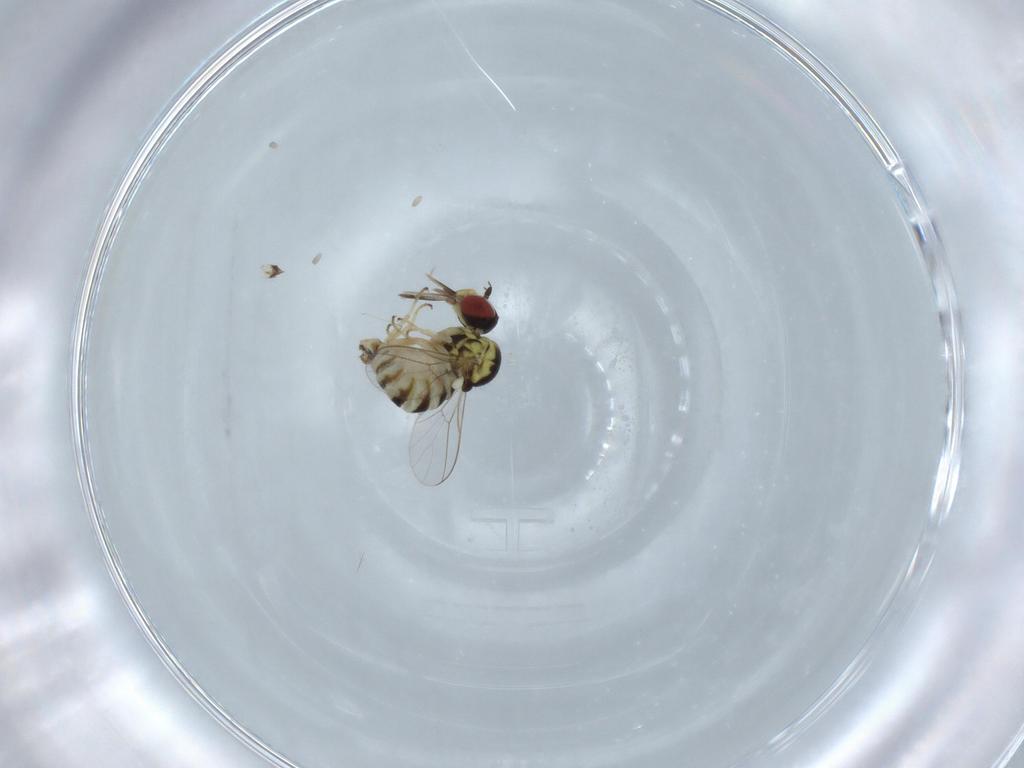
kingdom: Animalia
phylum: Arthropoda
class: Insecta
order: Diptera
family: Bombyliidae
